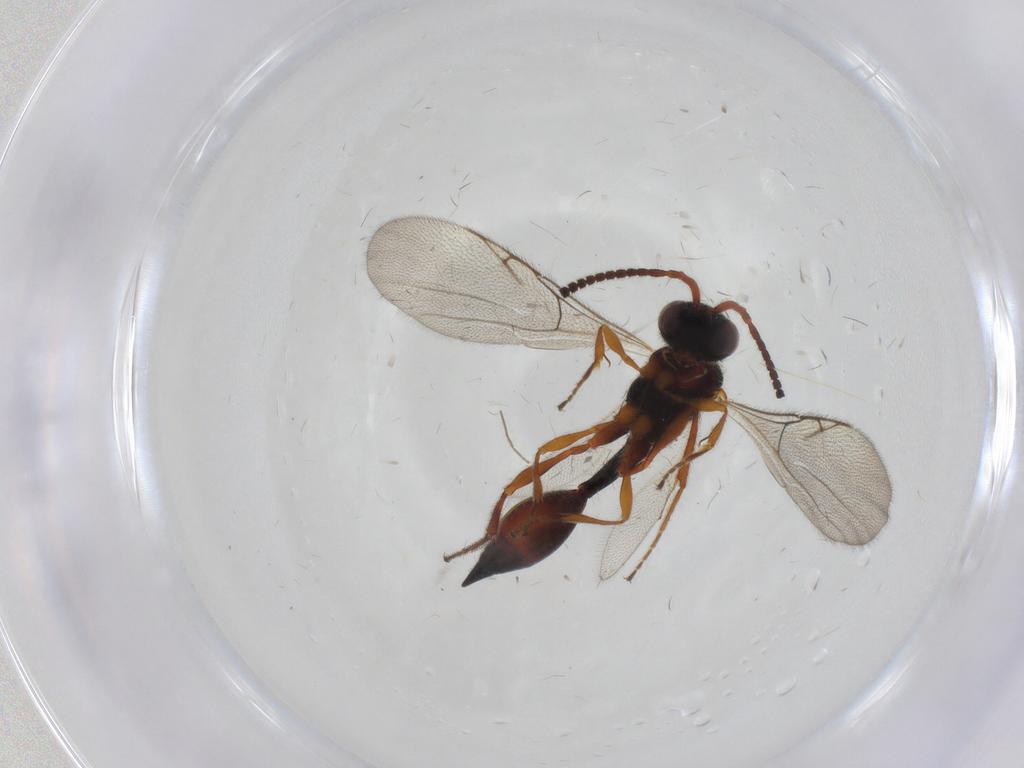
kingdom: Animalia
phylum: Arthropoda
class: Insecta
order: Hymenoptera
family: Diapriidae
